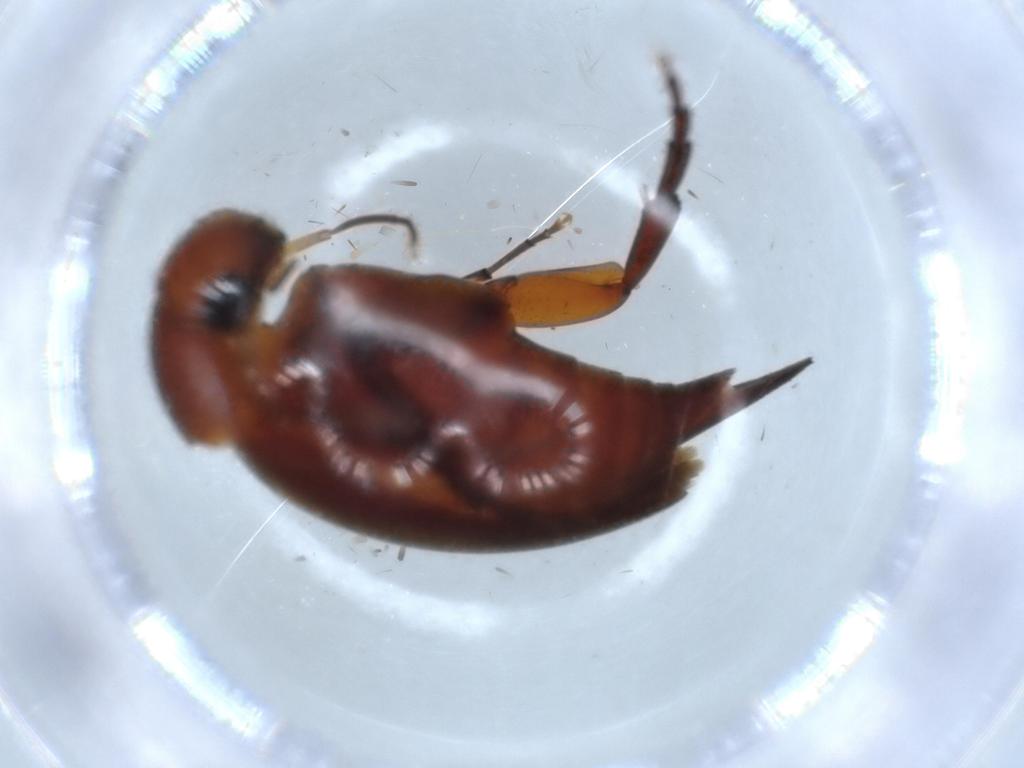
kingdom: Animalia
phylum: Arthropoda
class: Insecta
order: Coleoptera
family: Mordellidae
